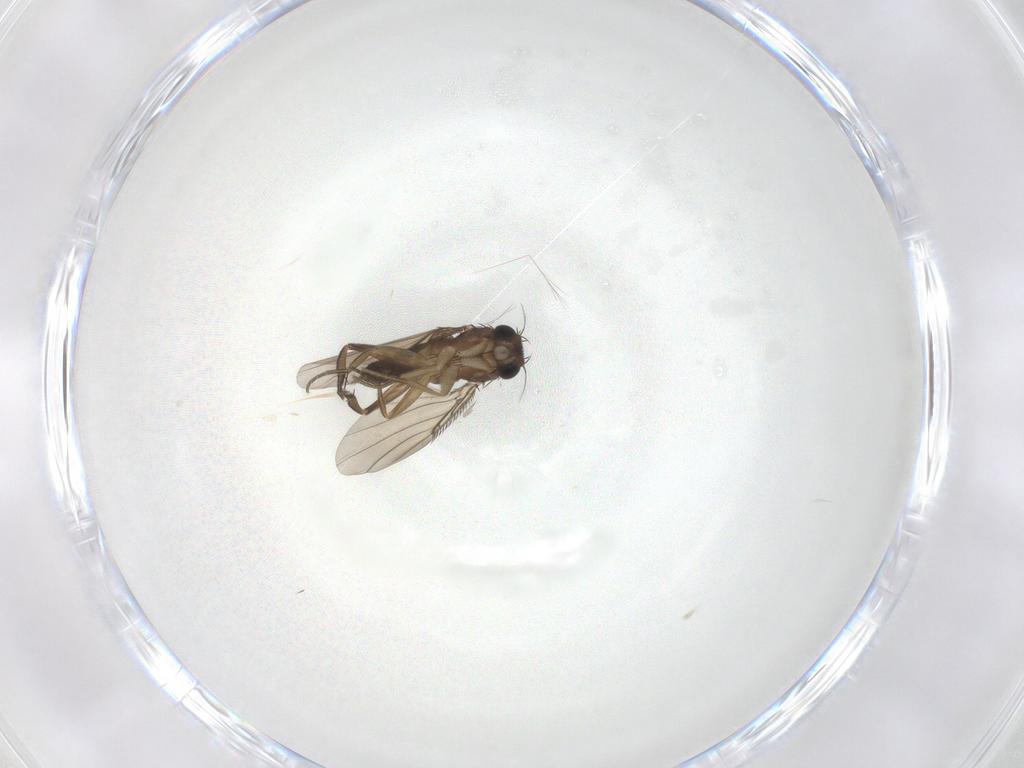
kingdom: Animalia
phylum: Arthropoda
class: Insecta
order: Diptera
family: Phoridae
